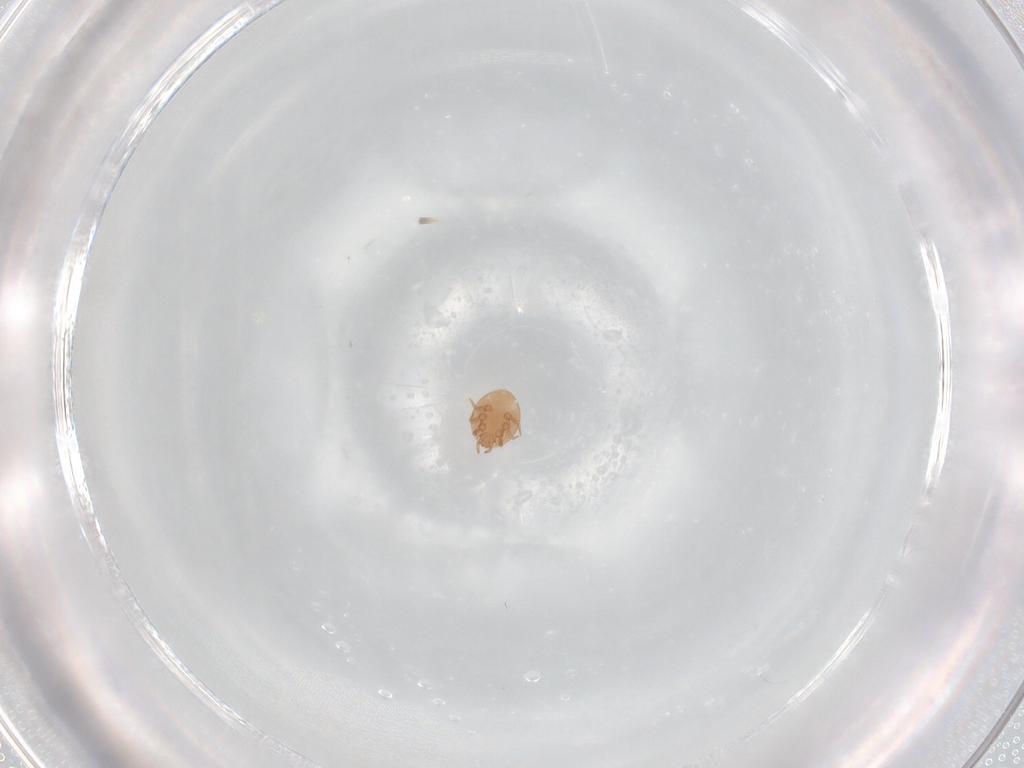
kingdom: Animalia
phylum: Arthropoda
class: Arachnida
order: Mesostigmata
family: Trematuridae
